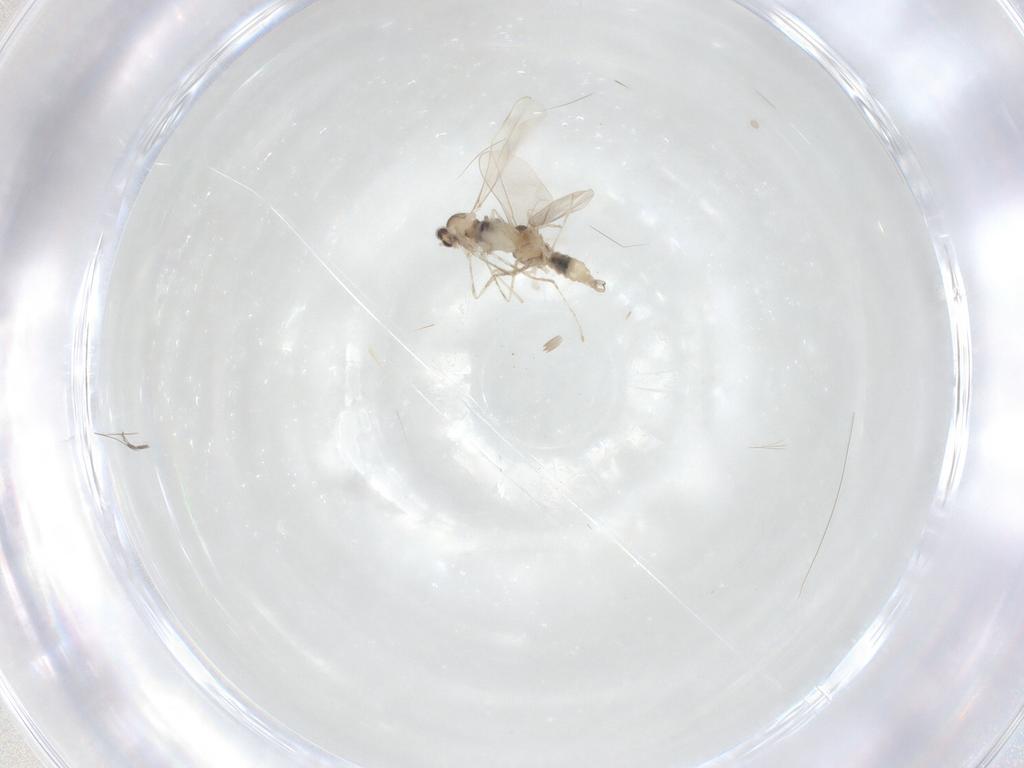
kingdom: Animalia
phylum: Arthropoda
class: Insecta
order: Diptera
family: Cecidomyiidae
